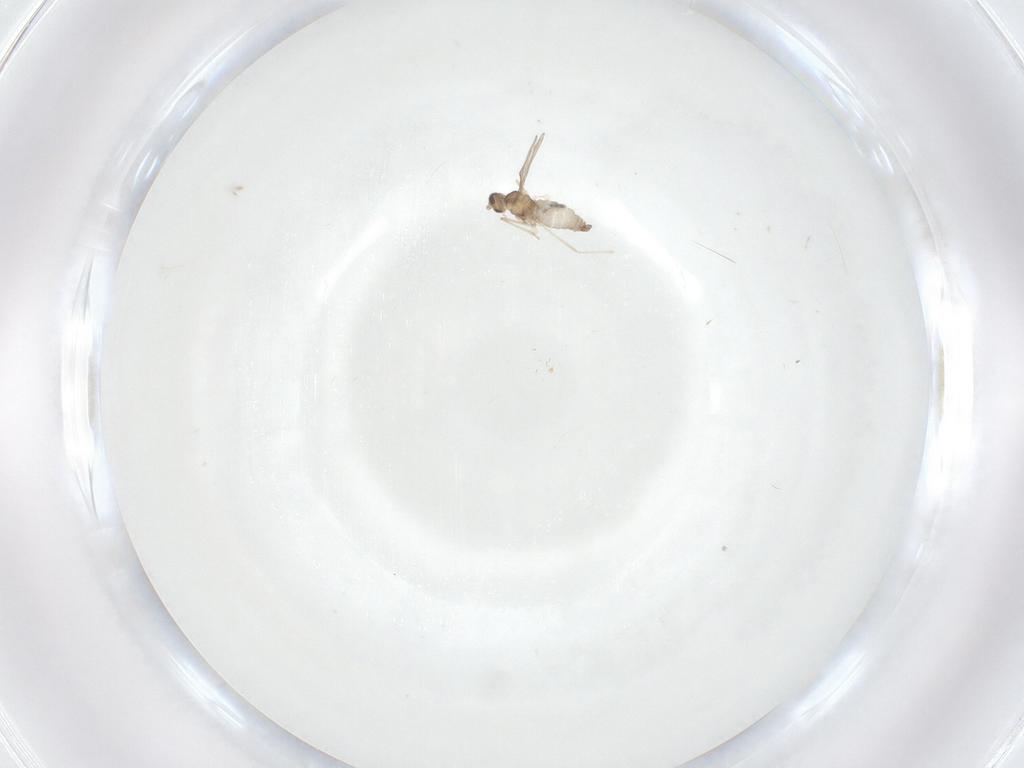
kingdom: Animalia
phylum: Arthropoda
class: Insecta
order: Diptera
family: Cecidomyiidae
